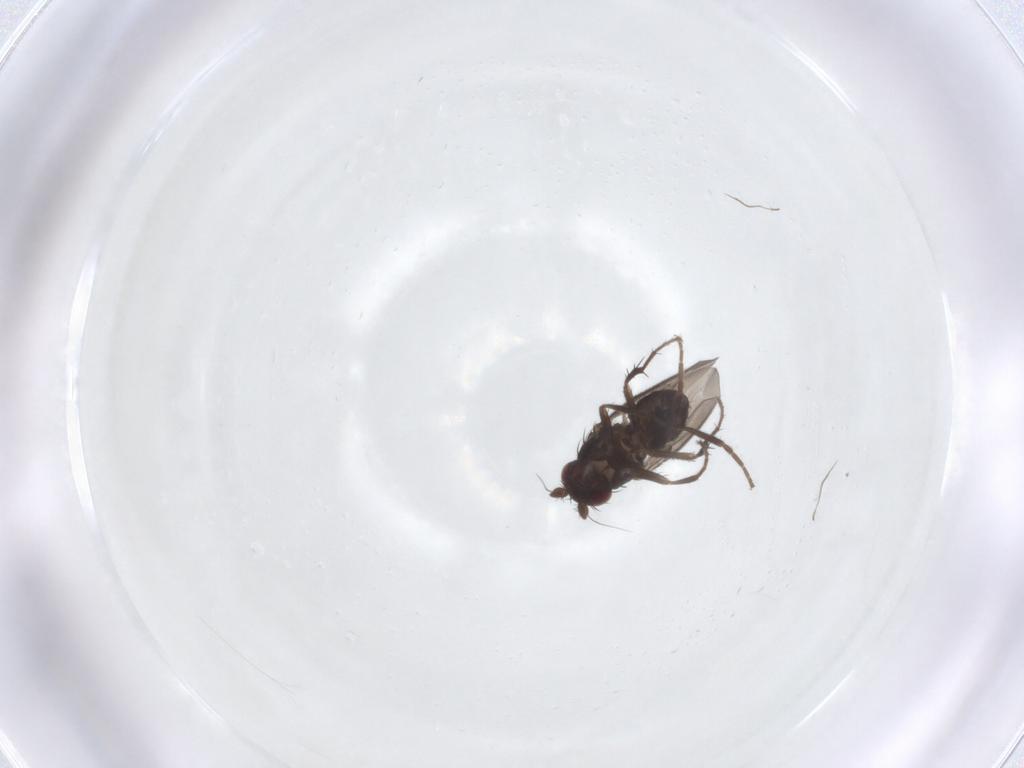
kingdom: Animalia
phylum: Arthropoda
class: Insecta
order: Diptera
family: Sphaeroceridae
